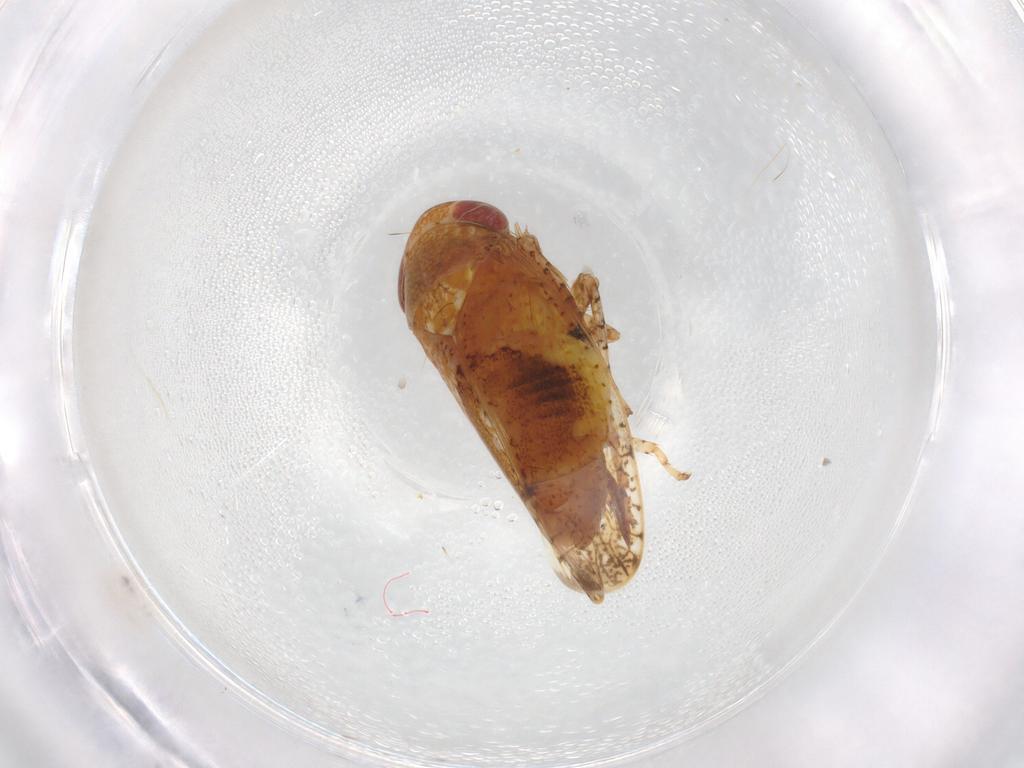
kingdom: Animalia
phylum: Arthropoda
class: Insecta
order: Hemiptera
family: Cicadellidae
